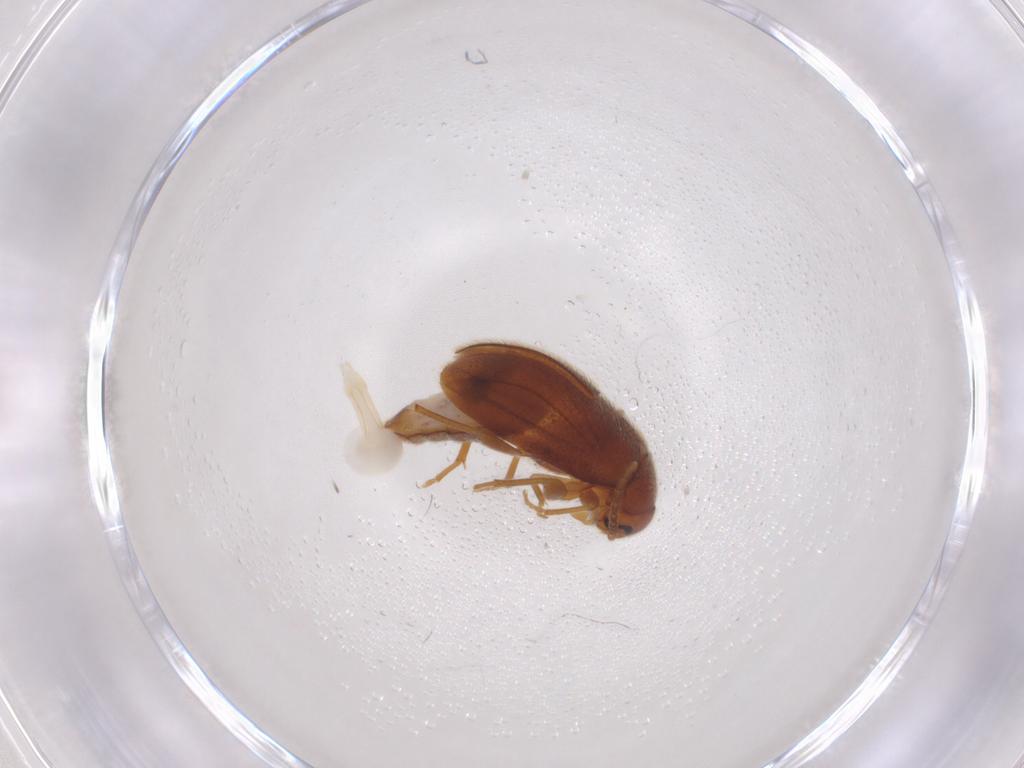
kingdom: Animalia
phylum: Arthropoda
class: Insecta
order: Coleoptera
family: Scraptiidae
